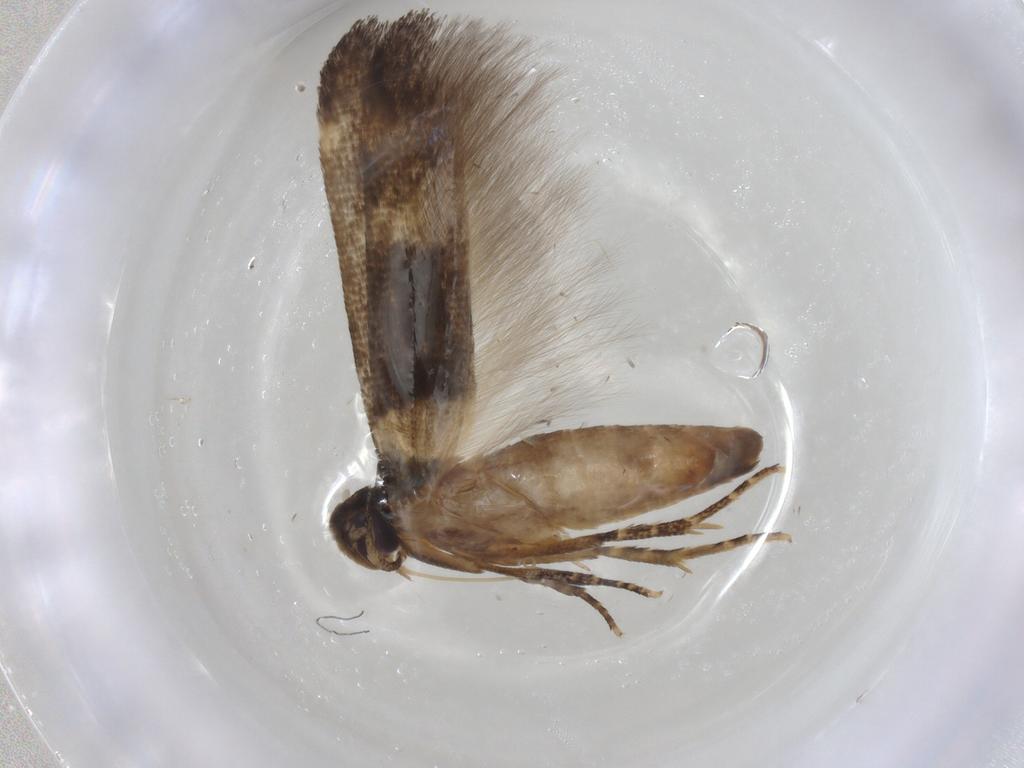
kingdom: Animalia
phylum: Arthropoda
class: Insecta
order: Lepidoptera
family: Cosmopterigidae
